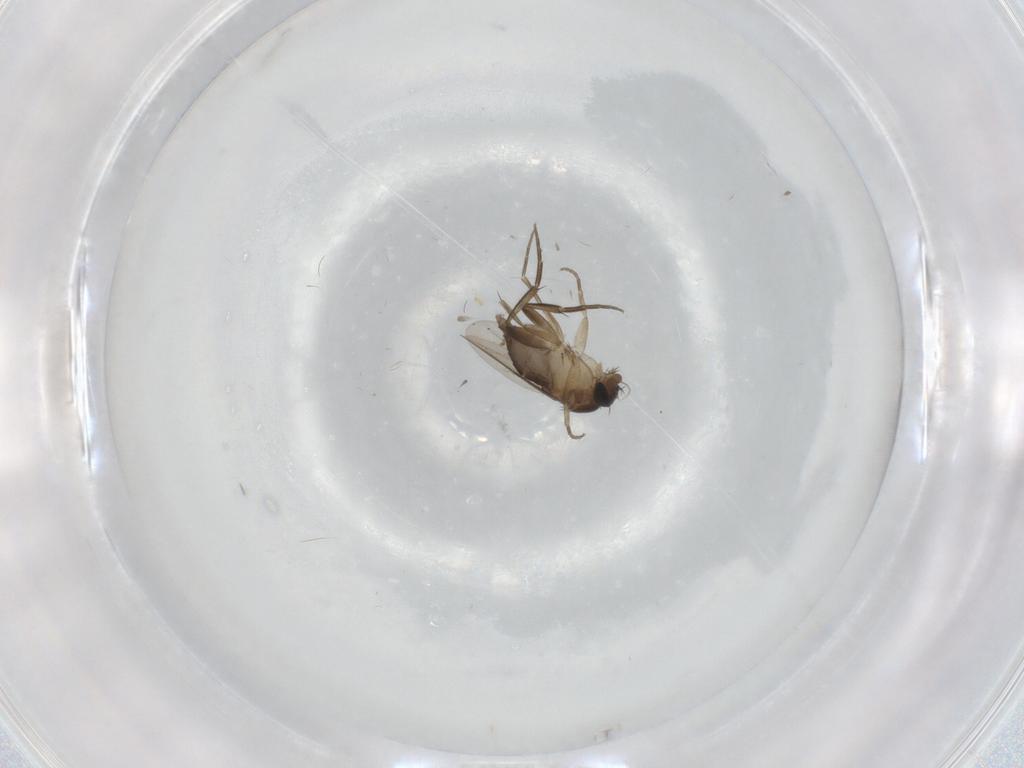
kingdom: Animalia
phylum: Arthropoda
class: Insecta
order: Diptera
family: Phoridae
